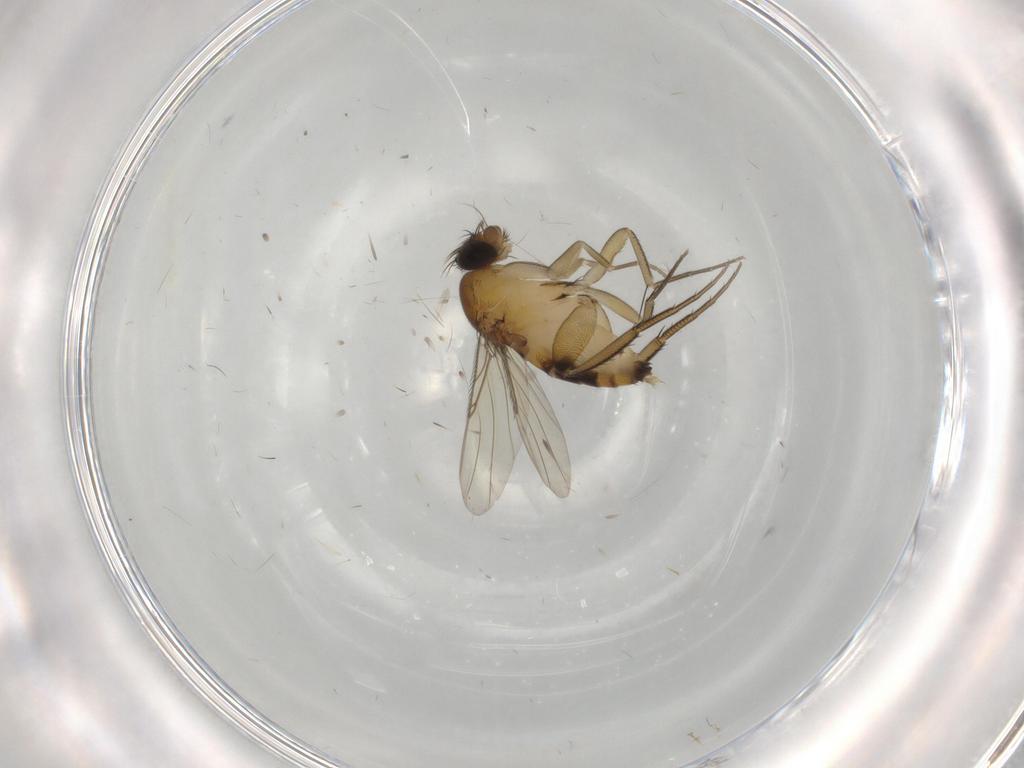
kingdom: Animalia
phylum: Arthropoda
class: Insecta
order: Diptera
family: Phoridae
